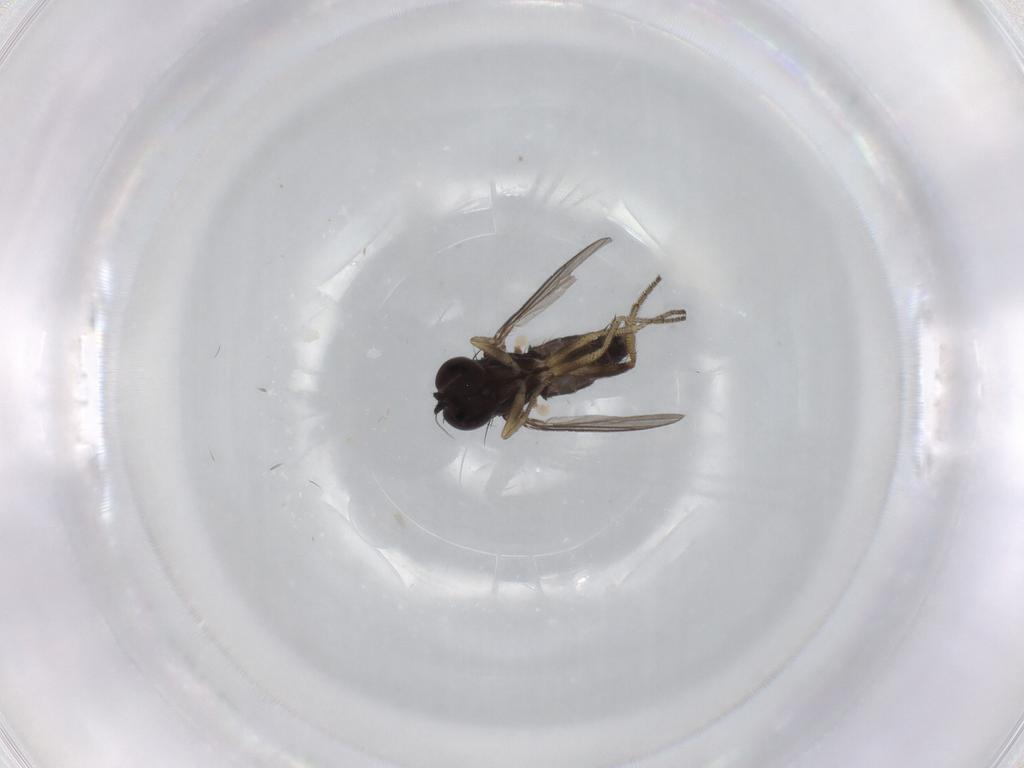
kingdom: Animalia
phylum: Arthropoda
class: Insecta
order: Diptera
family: Dolichopodidae
